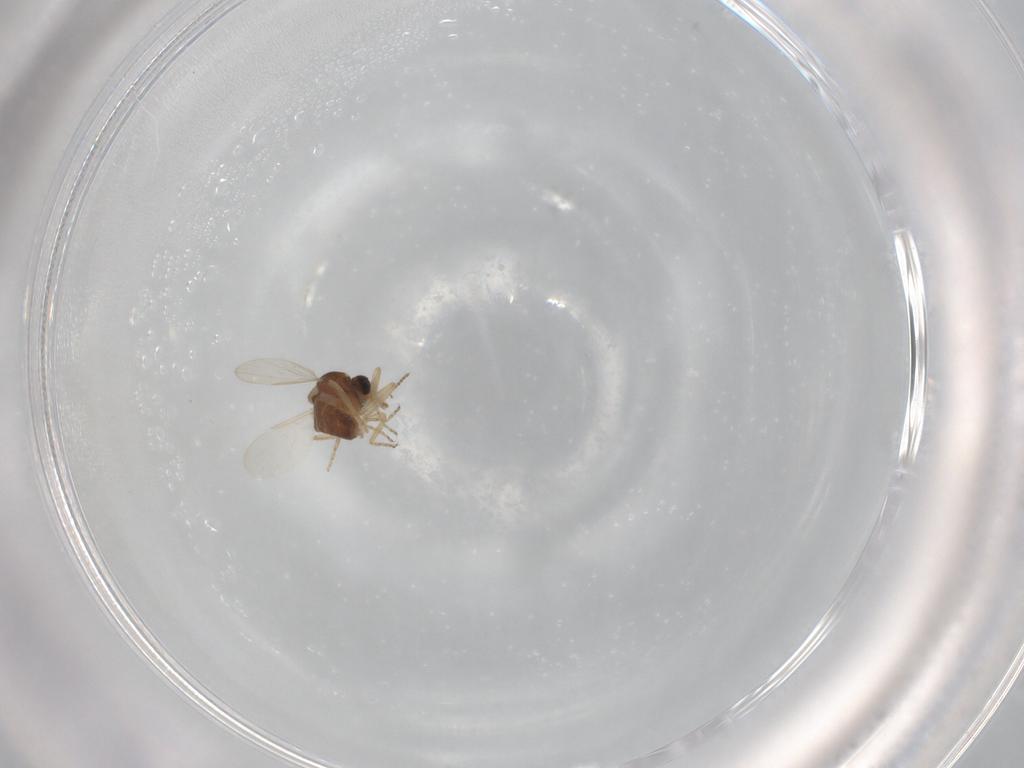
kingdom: Animalia
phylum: Arthropoda
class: Insecta
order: Diptera
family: Ceratopogonidae
